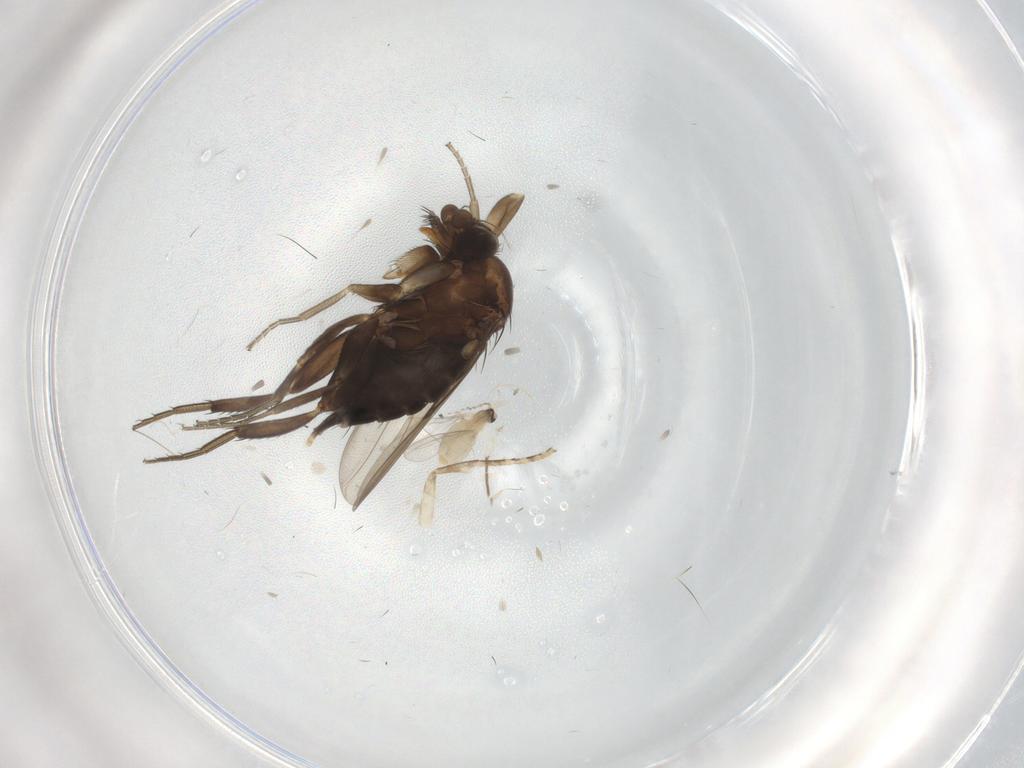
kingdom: Animalia
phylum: Arthropoda
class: Insecta
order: Diptera
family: Phoridae
